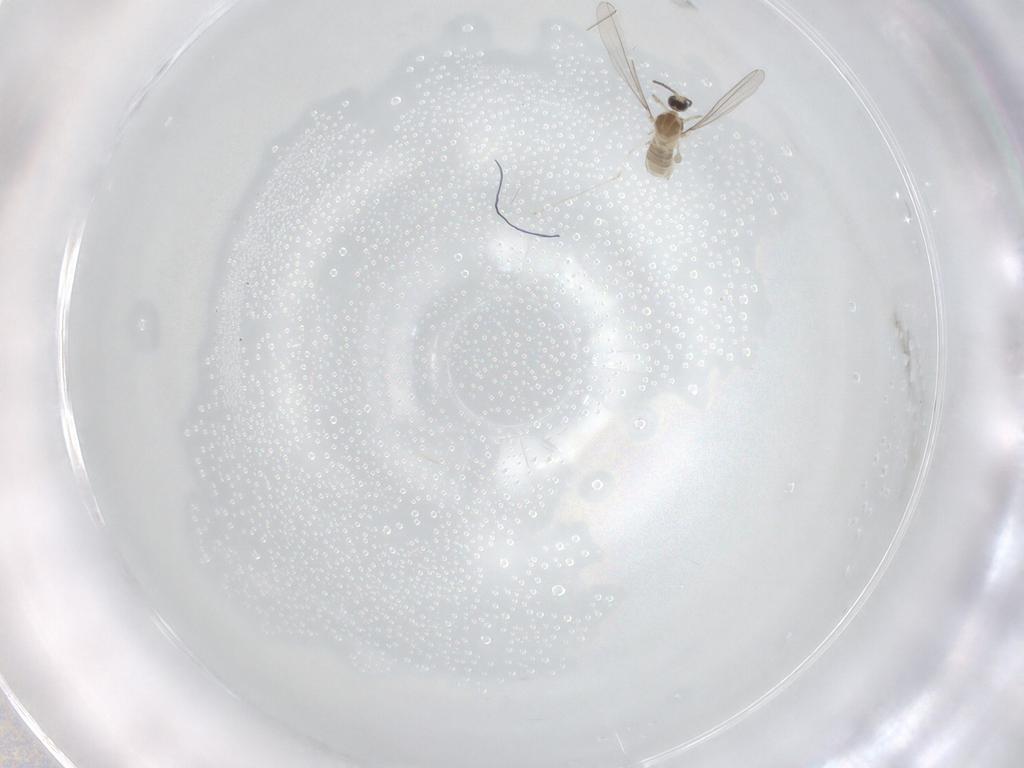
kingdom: Animalia
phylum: Arthropoda
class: Insecta
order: Diptera
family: Cecidomyiidae
